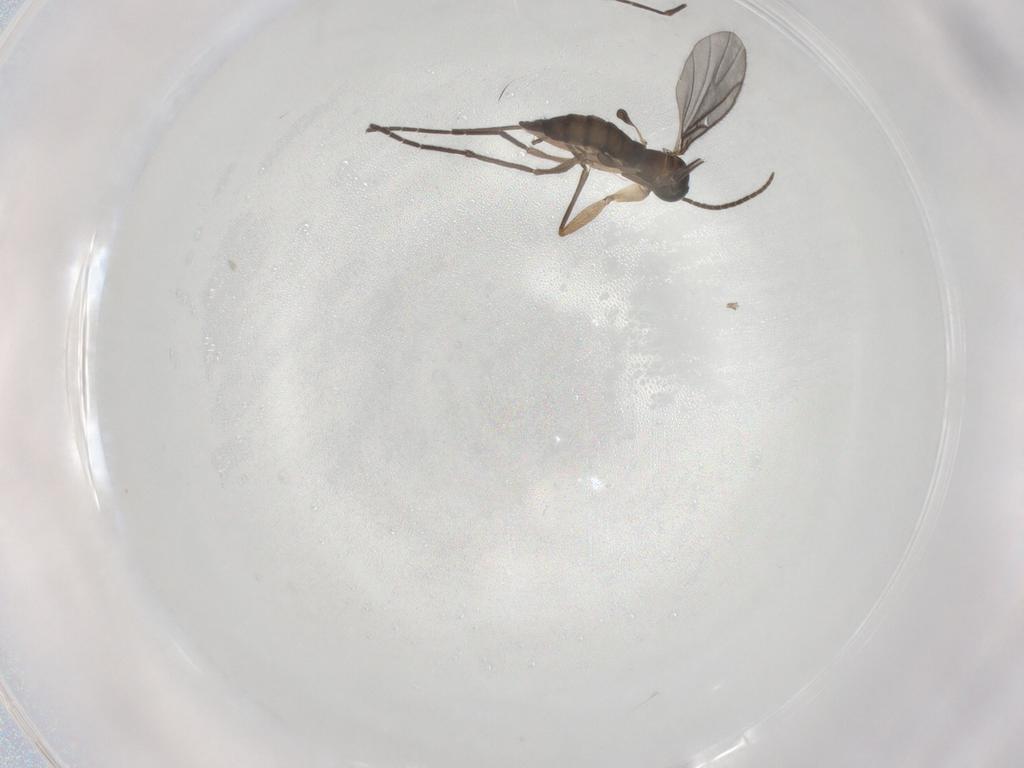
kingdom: Animalia
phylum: Arthropoda
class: Insecta
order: Diptera
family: Sciaridae
